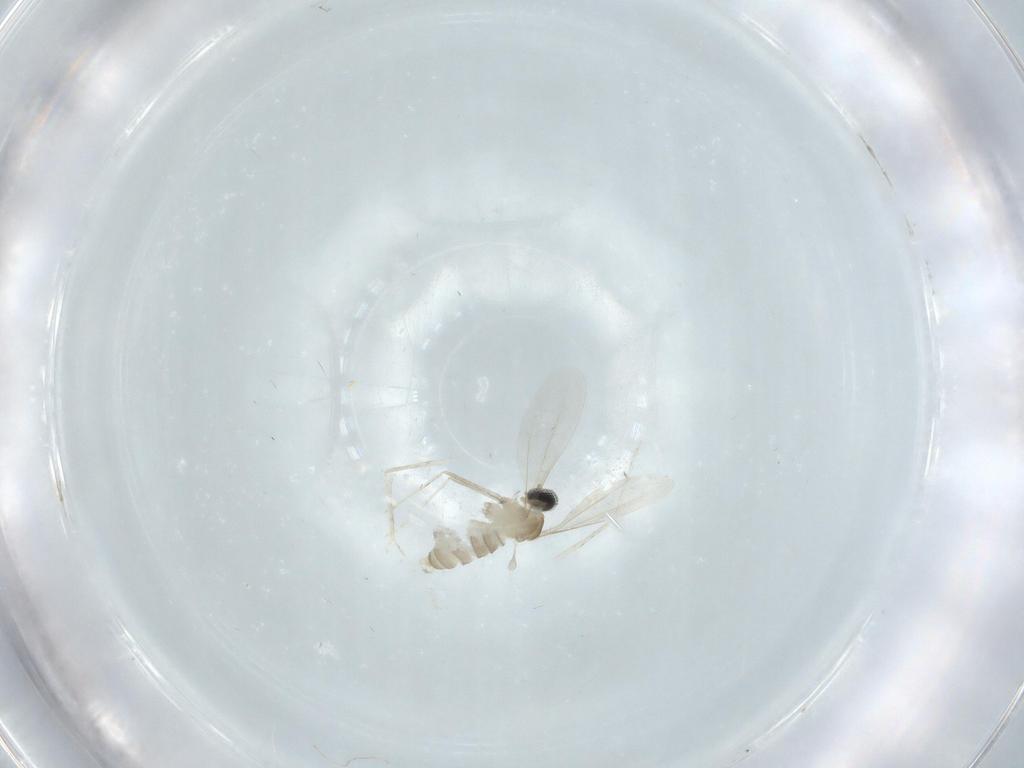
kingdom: Animalia
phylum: Arthropoda
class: Insecta
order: Diptera
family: Cecidomyiidae
